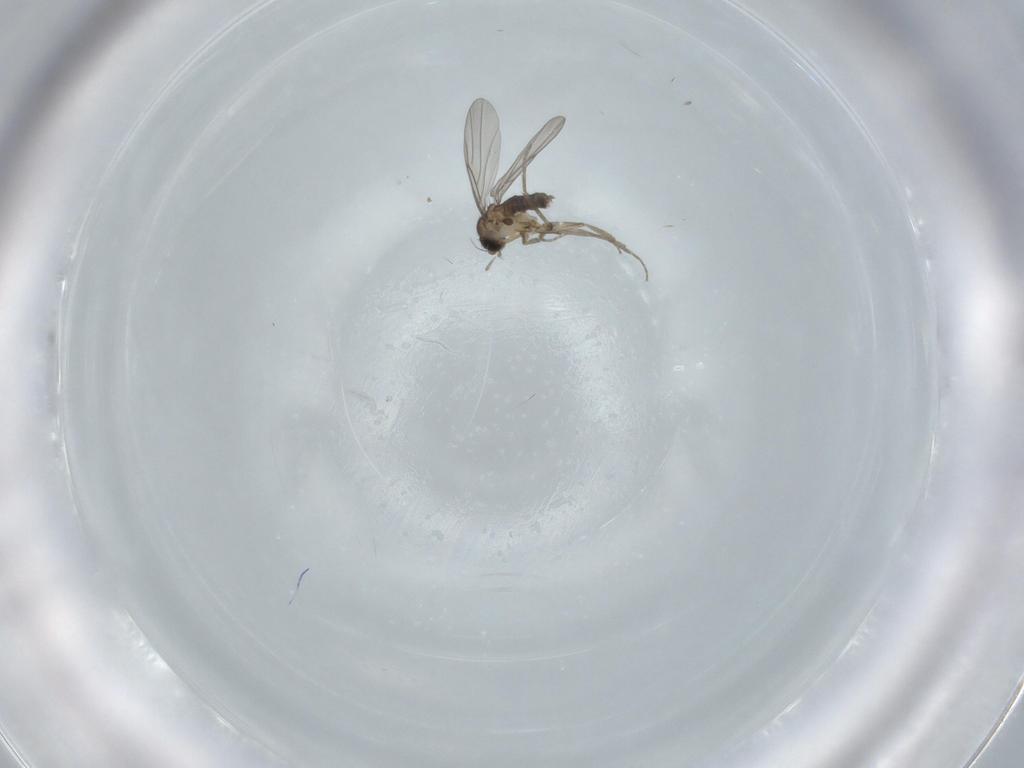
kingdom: Animalia
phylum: Arthropoda
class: Insecta
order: Diptera
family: Phoridae
